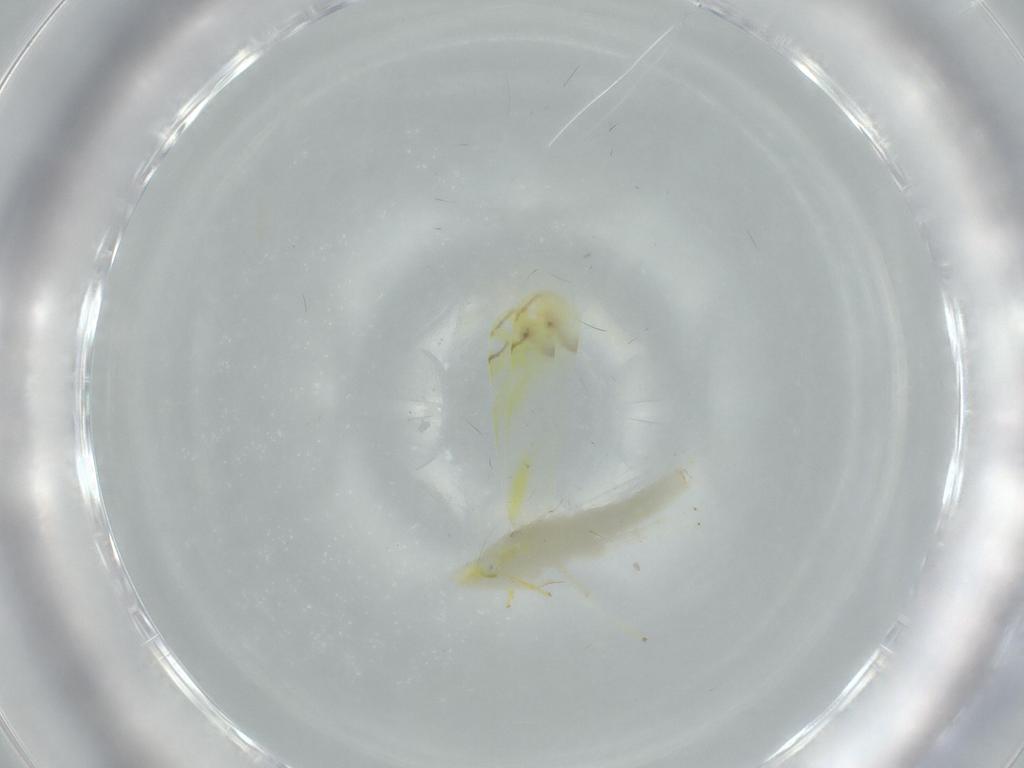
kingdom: Animalia
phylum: Arthropoda
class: Insecta
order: Hemiptera
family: Cicadellidae
